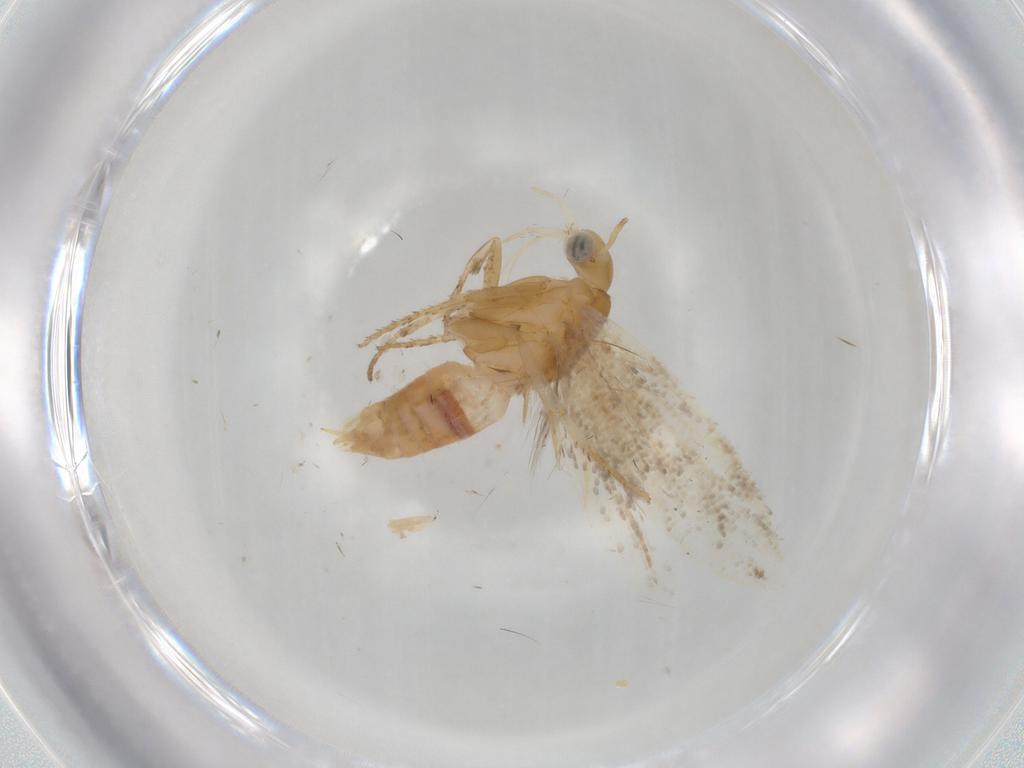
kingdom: Animalia
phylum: Arthropoda
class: Insecta
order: Lepidoptera
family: Plutellidae
